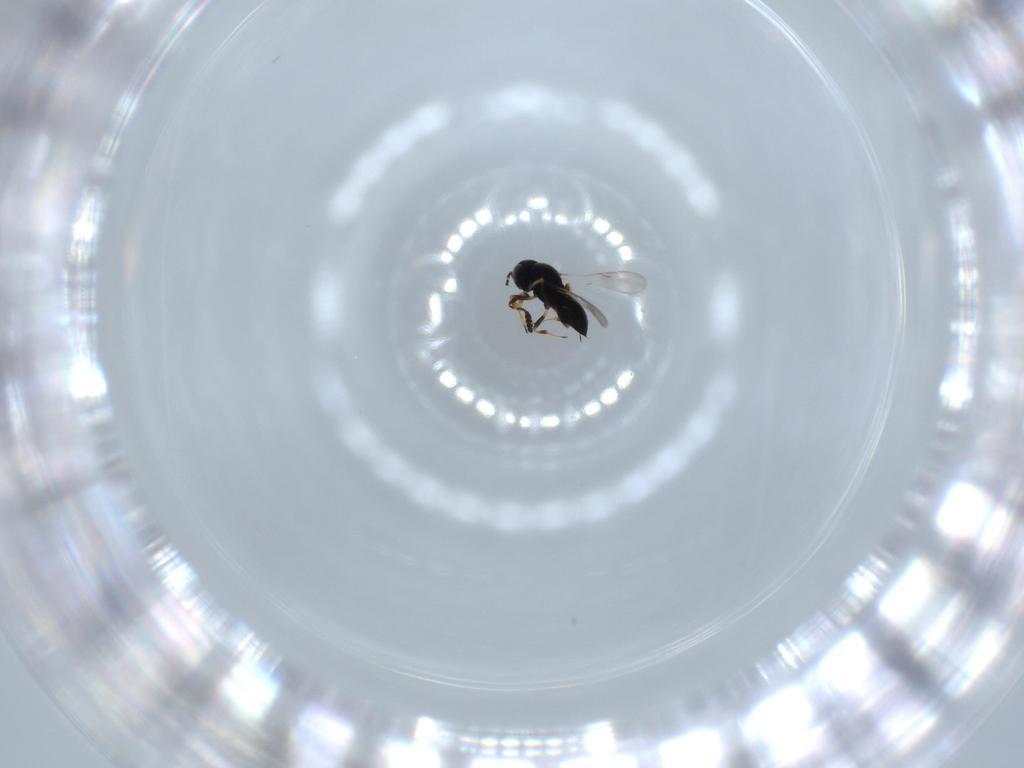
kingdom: Animalia
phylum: Arthropoda
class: Insecta
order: Hymenoptera
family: Scelionidae
